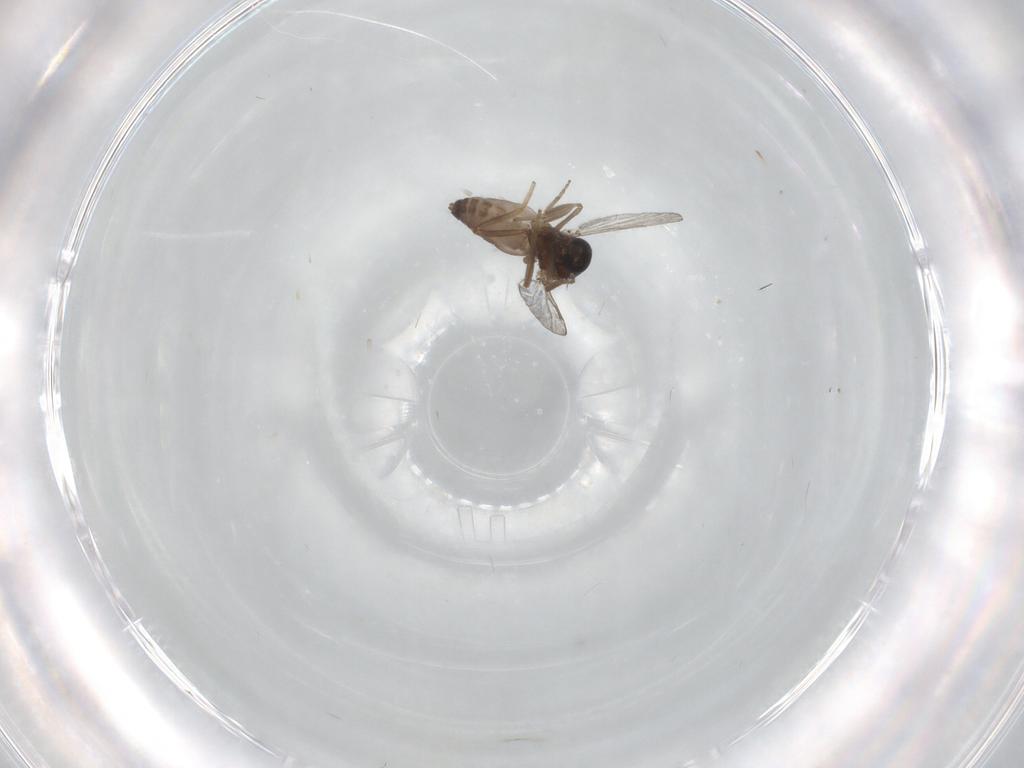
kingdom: Animalia
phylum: Arthropoda
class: Insecta
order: Diptera
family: Ceratopogonidae
